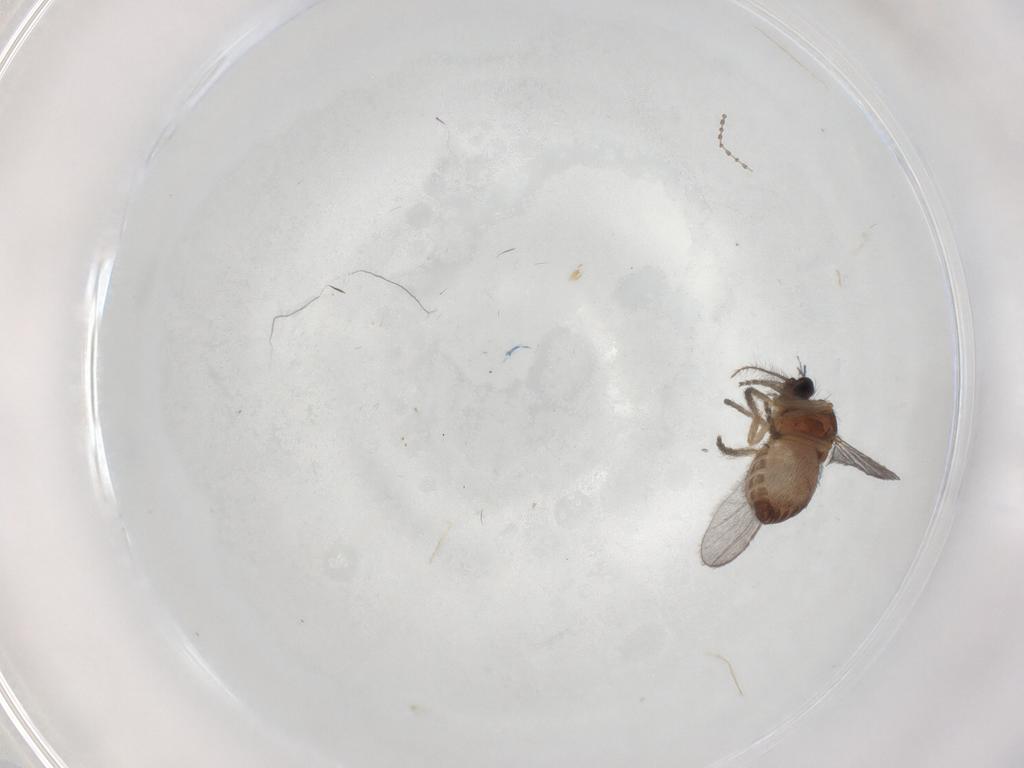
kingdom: Animalia
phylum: Arthropoda
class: Insecta
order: Diptera
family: Ceratopogonidae
